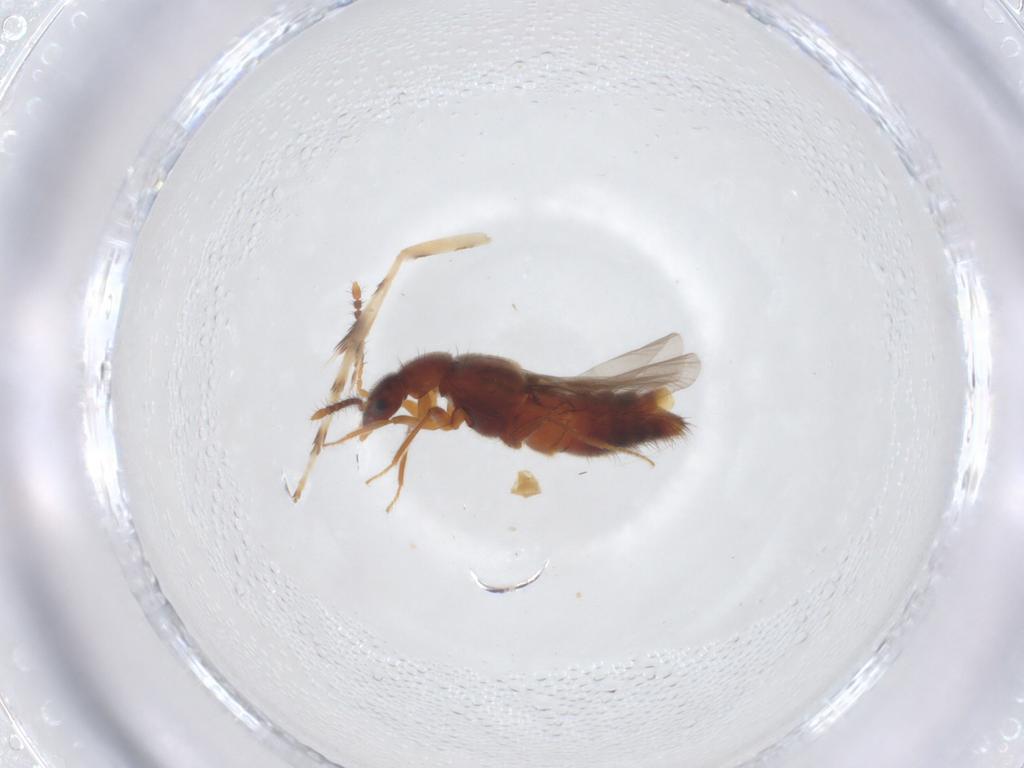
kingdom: Animalia
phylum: Arthropoda
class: Insecta
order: Coleoptera
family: Staphylinidae
